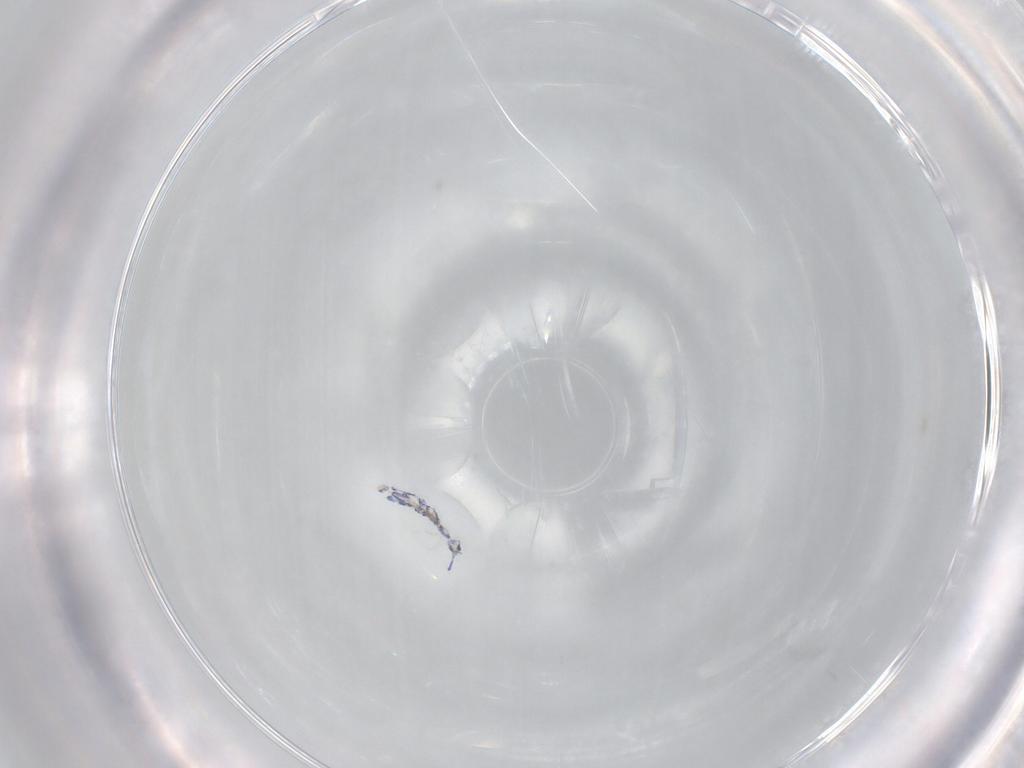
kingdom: Animalia
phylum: Arthropoda
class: Collembola
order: Entomobryomorpha
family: Entomobryidae
